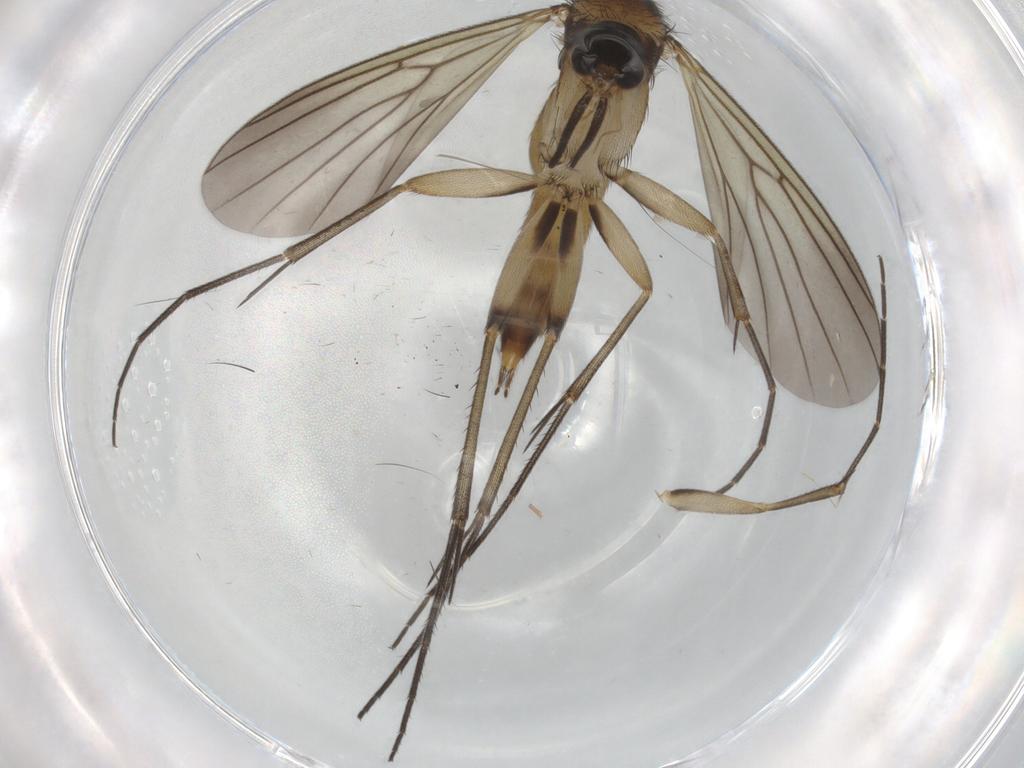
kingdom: Animalia
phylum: Arthropoda
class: Insecta
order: Diptera
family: Mycetophilidae
